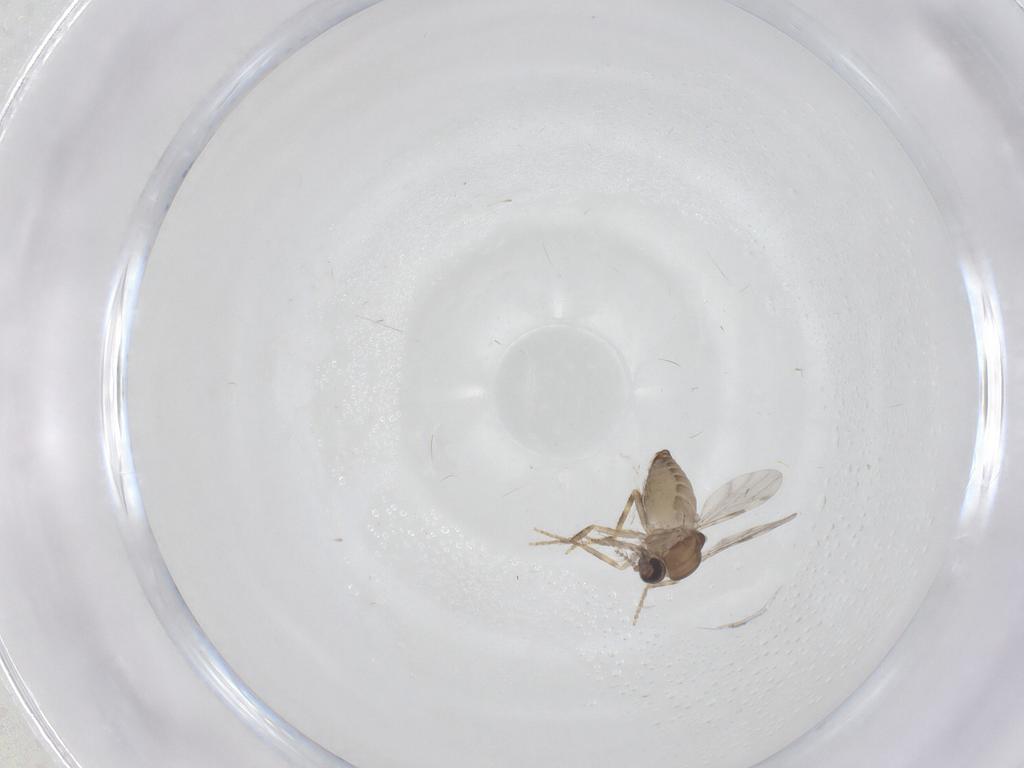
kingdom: Animalia
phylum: Arthropoda
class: Insecta
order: Diptera
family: Ceratopogonidae
